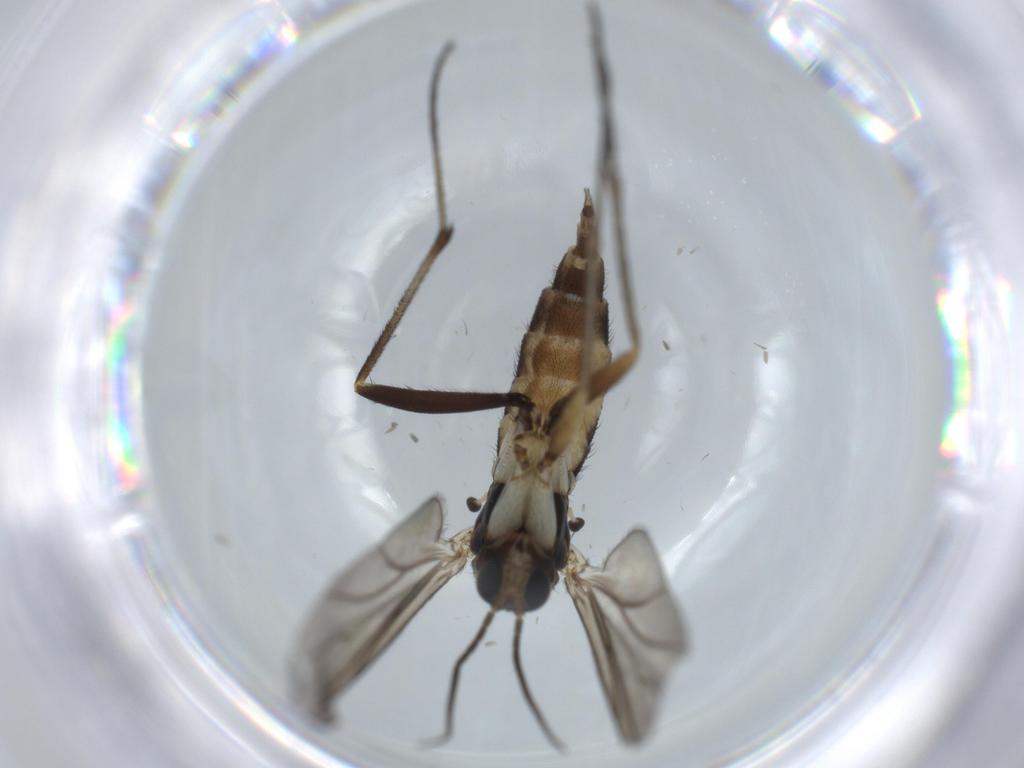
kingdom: Animalia
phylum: Arthropoda
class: Insecta
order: Diptera
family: Sciaridae
